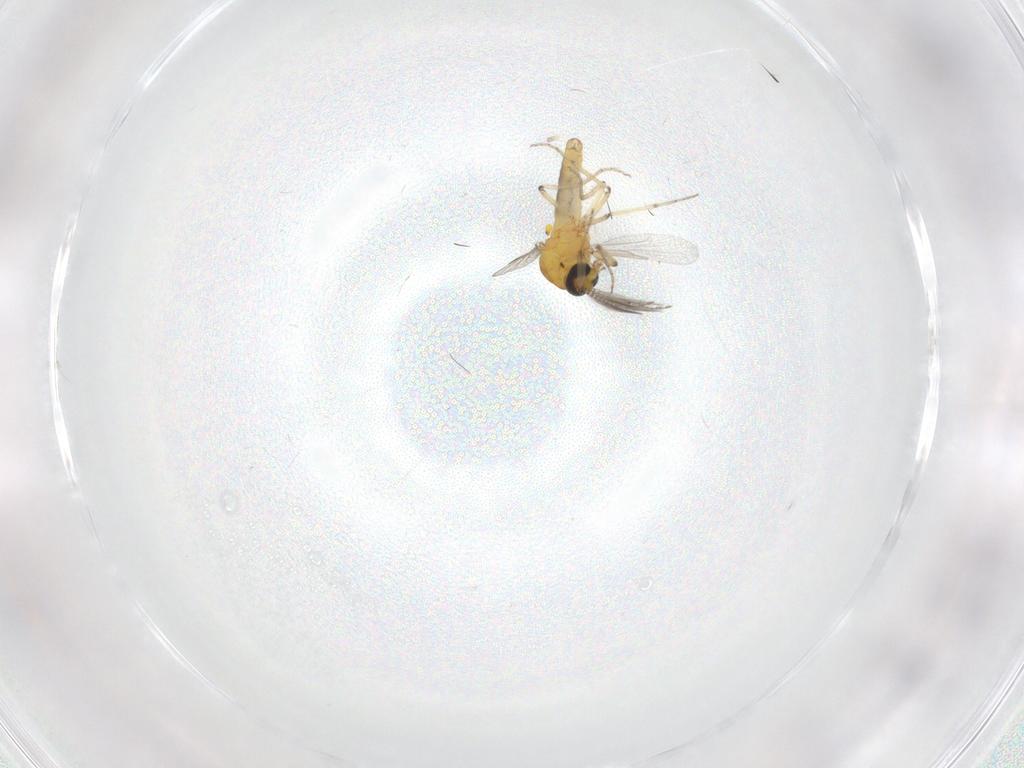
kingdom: Animalia
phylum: Arthropoda
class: Insecta
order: Diptera
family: Ceratopogonidae
